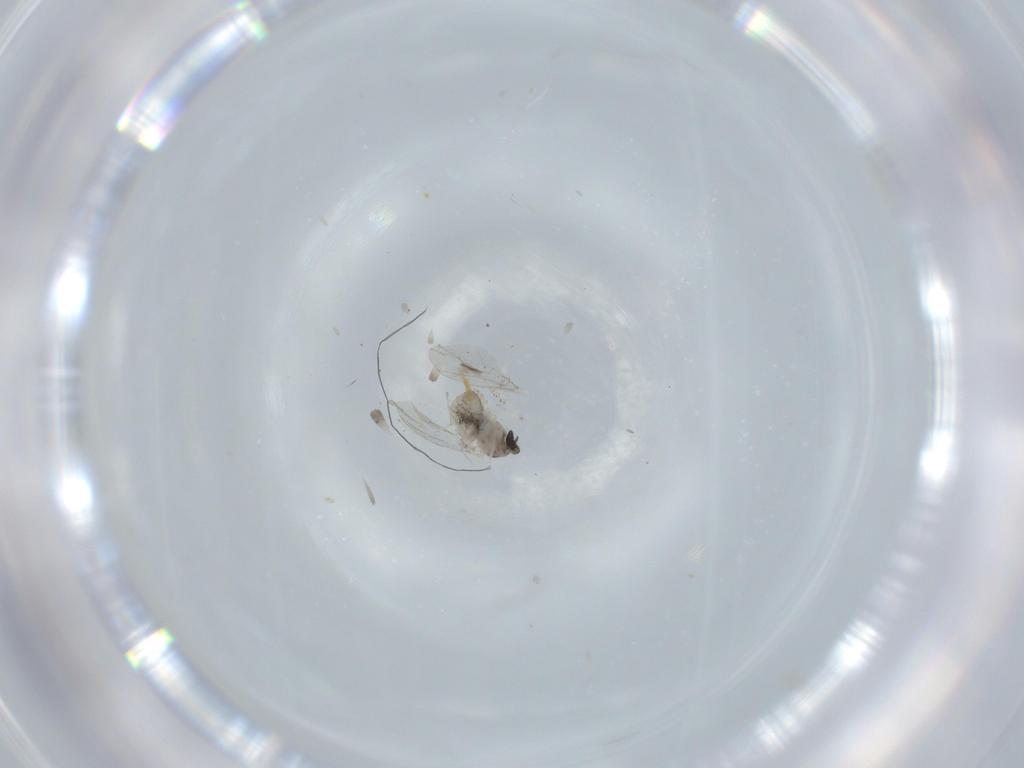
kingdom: Animalia
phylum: Arthropoda
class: Insecta
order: Diptera
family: Cecidomyiidae
